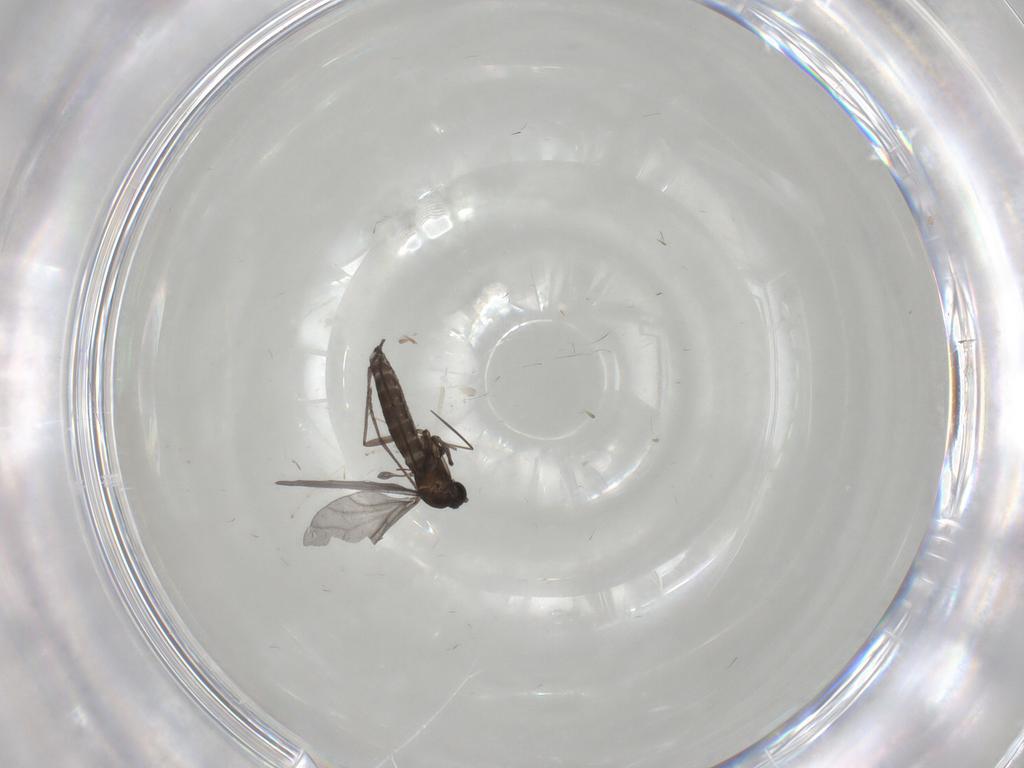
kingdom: Animalia
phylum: Arthropoda
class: Insecta
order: Diptera
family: Sciaridae
